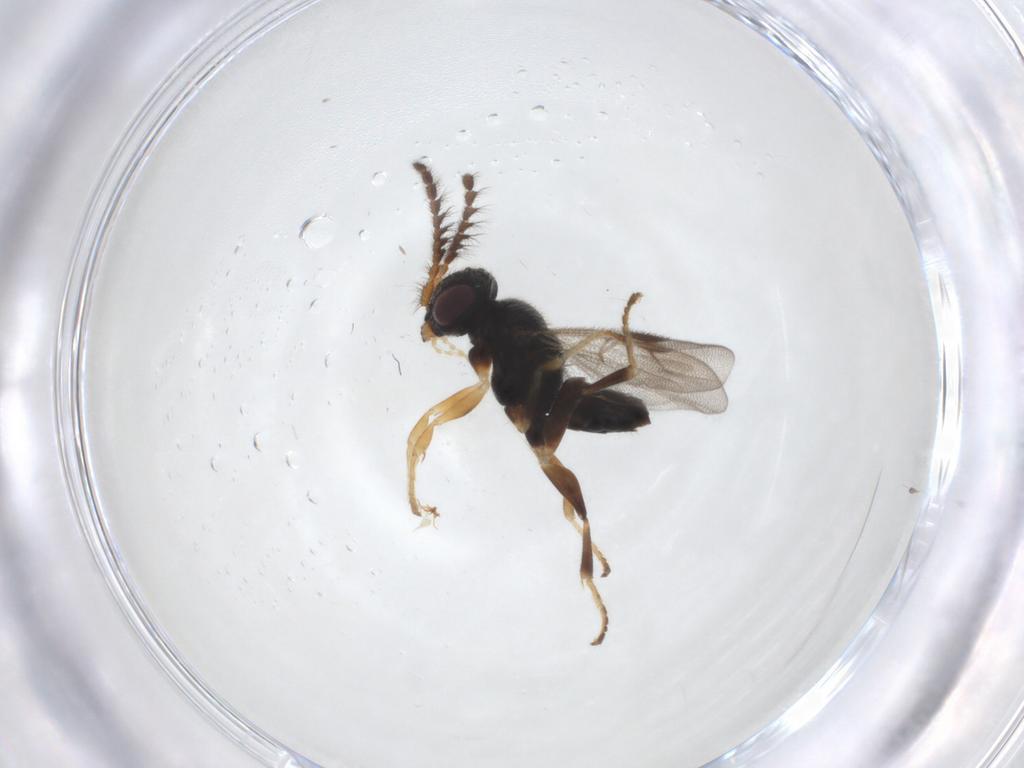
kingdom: Animalia
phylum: Arthropoda
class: Insecta
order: Hymenoptera
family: Dryinidae
